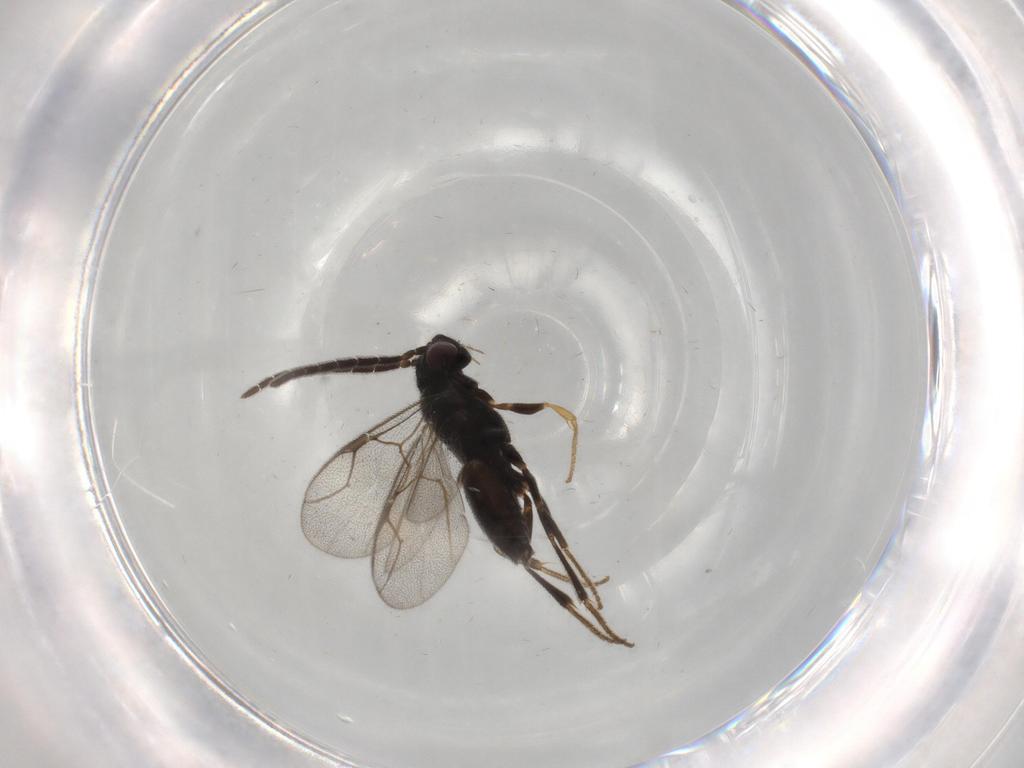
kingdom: Animalia
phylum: Arthropoda
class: Insecta
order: Hymenoptera
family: Dryinidae
